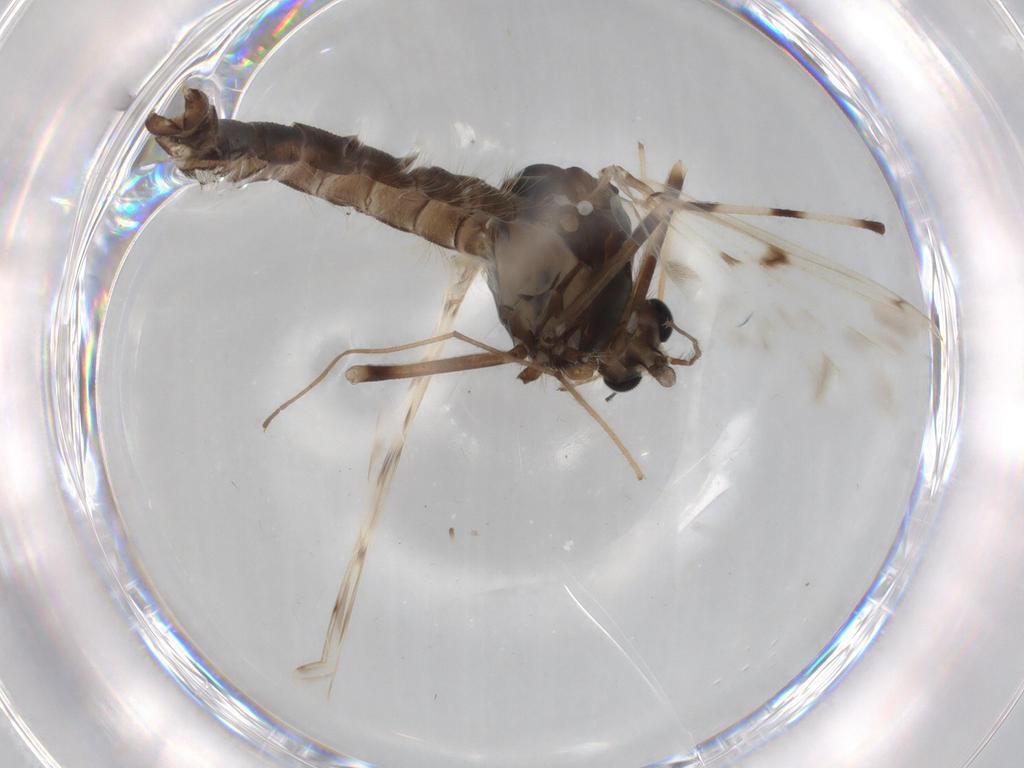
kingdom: Animalia
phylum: Arthropoda
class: Insecta
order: Diptera
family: Chironomidae
